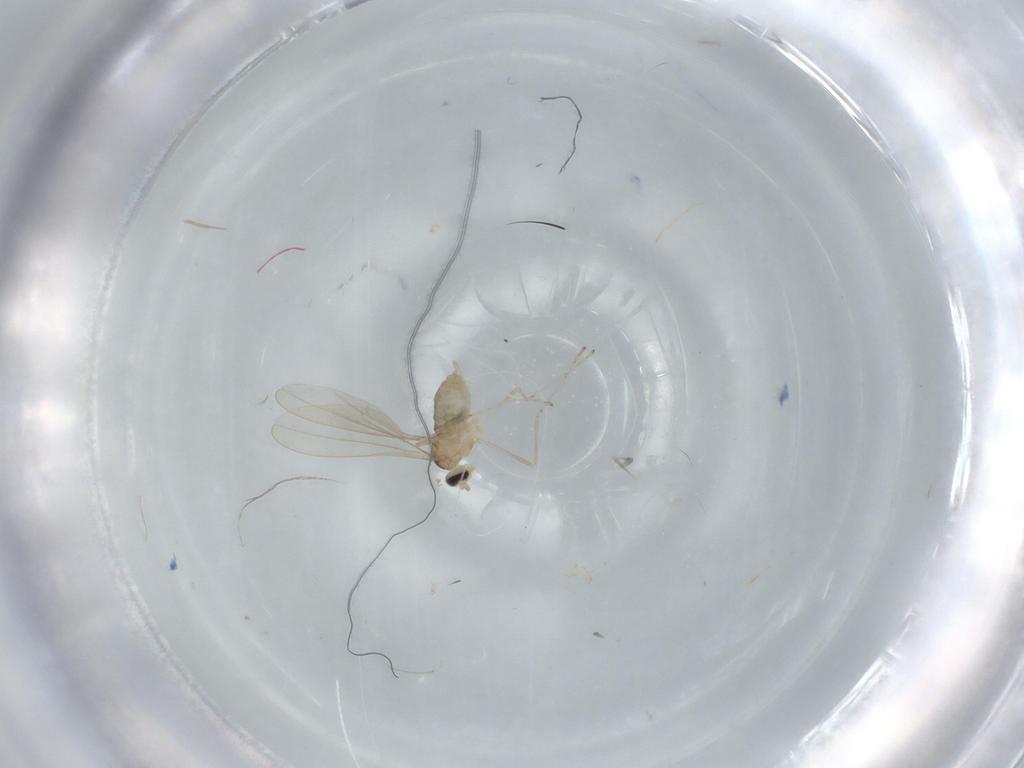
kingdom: Animalia
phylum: Arthropoda
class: Insecta
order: Diptera
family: Cecidomyiidae
